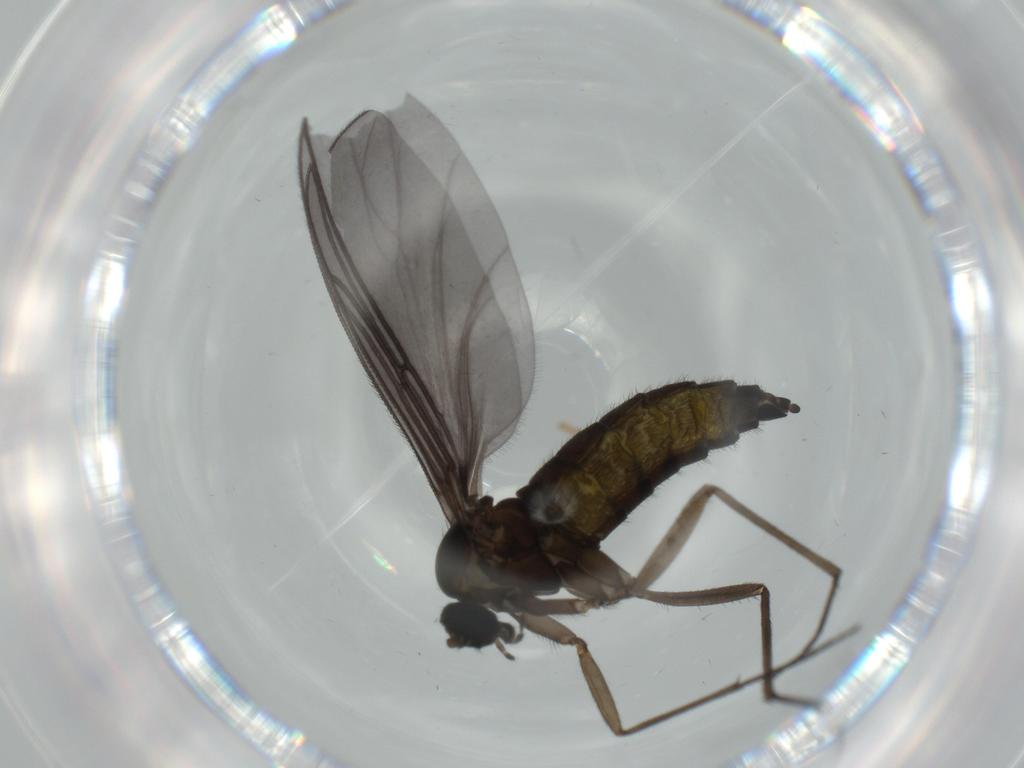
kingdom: Animalia
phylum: Arthropoda
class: Insecta
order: Diptera
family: Sciaridae
